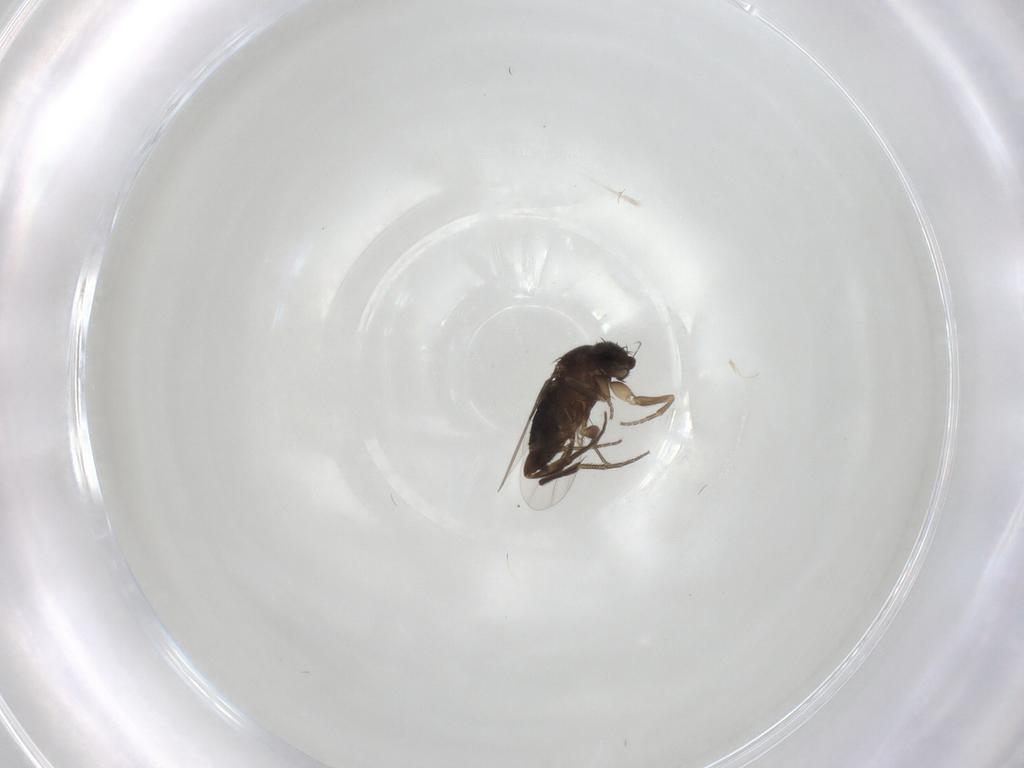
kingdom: Animalia
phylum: Arthropoda
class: Insecta
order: Diptera
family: Phoridae
